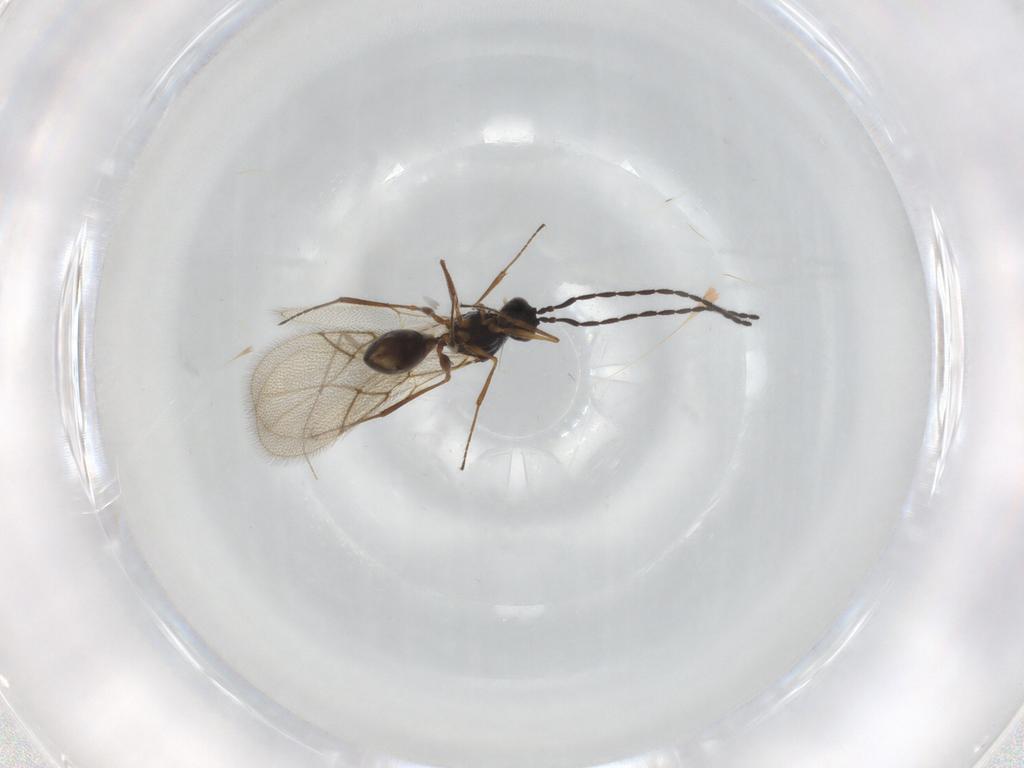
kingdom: Animalia
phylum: Arthropoda
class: Insecta
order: Hymenoptera
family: Figitidae
